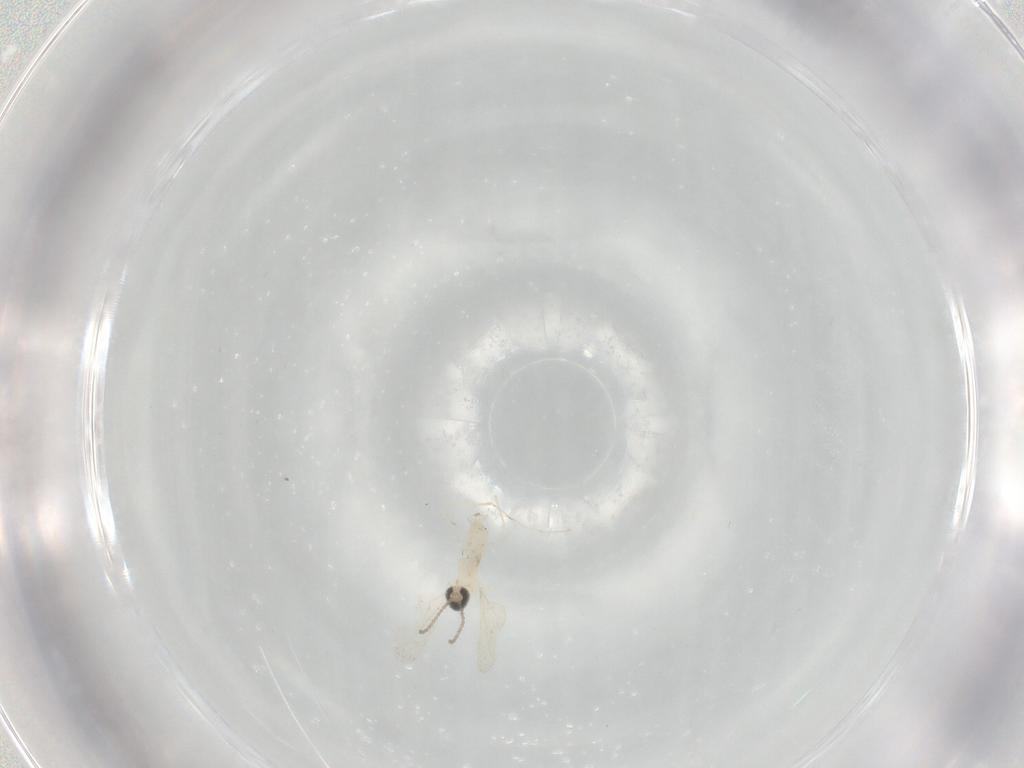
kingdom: Animalia
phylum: Arthropoda
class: Insecta
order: Diptera
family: Cecidomyiidae
